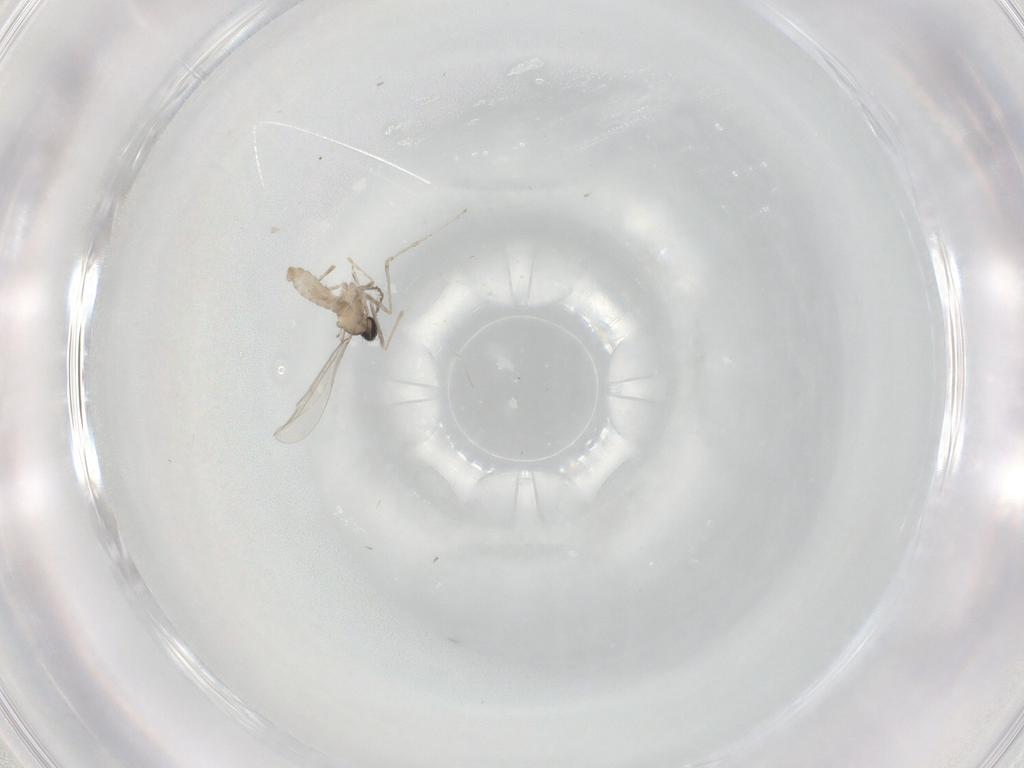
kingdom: Animalia
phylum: Arthropoda
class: Insecta
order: Diptera
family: Cecidomyiidae
